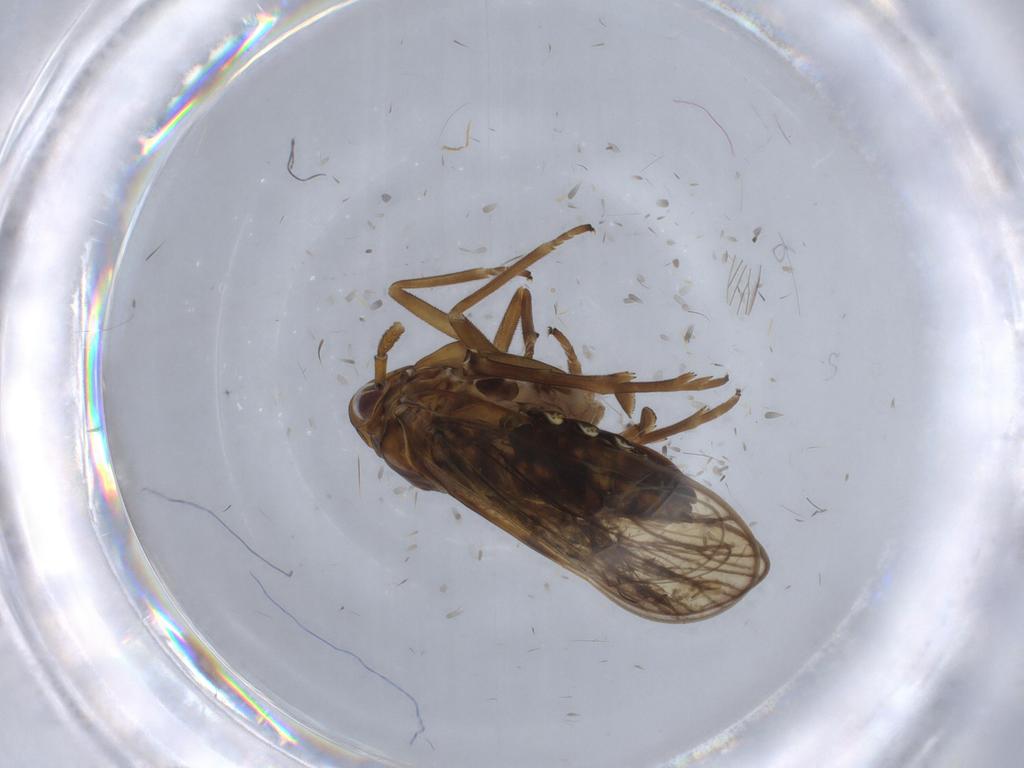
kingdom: Animalia
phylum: Arthropoda
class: Insecta
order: Hemiptera
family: Delphacidae
